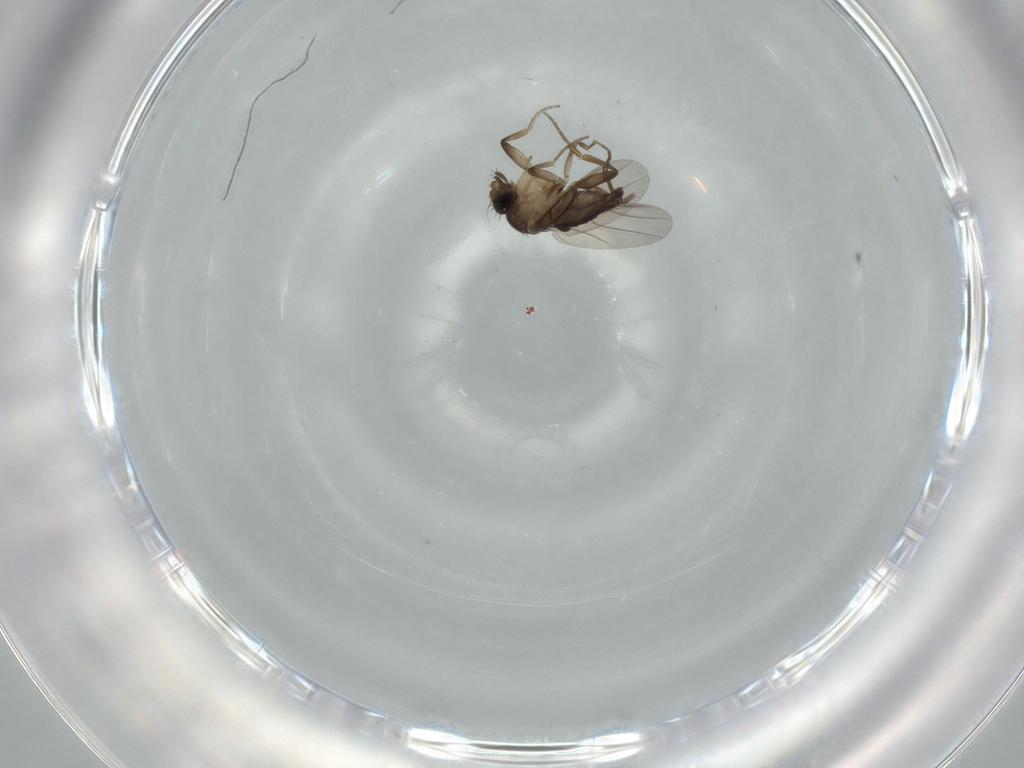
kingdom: Animalia
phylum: Arthropoda
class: Insecta
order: Diptera
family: Phoridae
